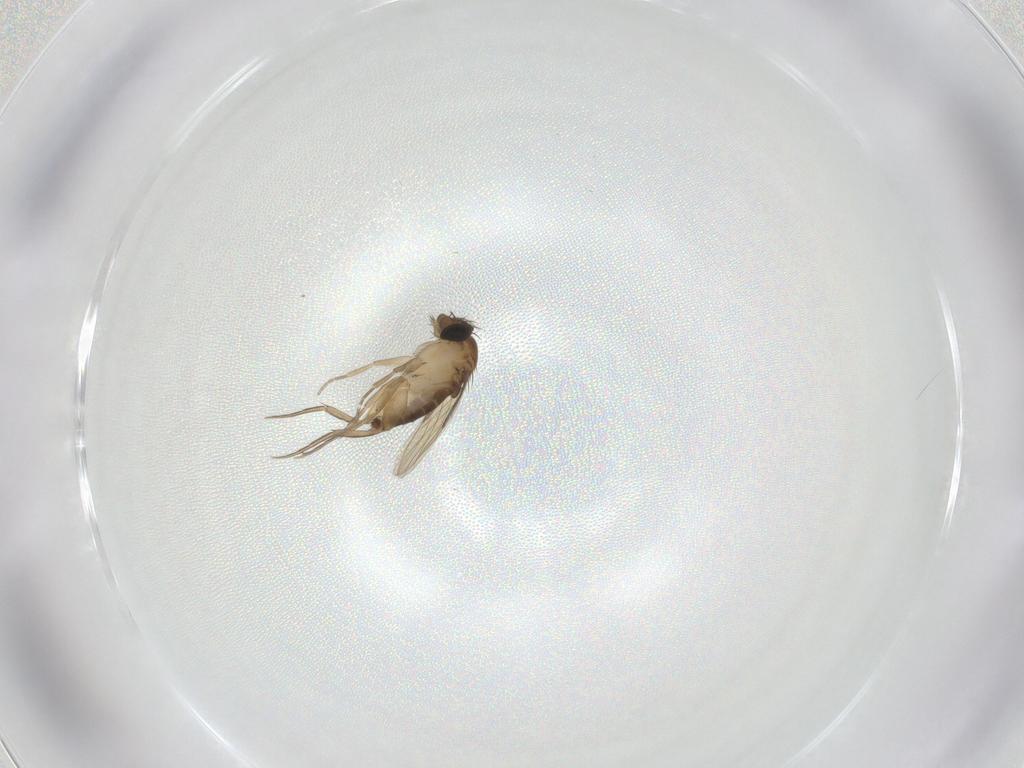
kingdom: Animalia
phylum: Arthropoda
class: Insecta
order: Diptera
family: Phoridae
